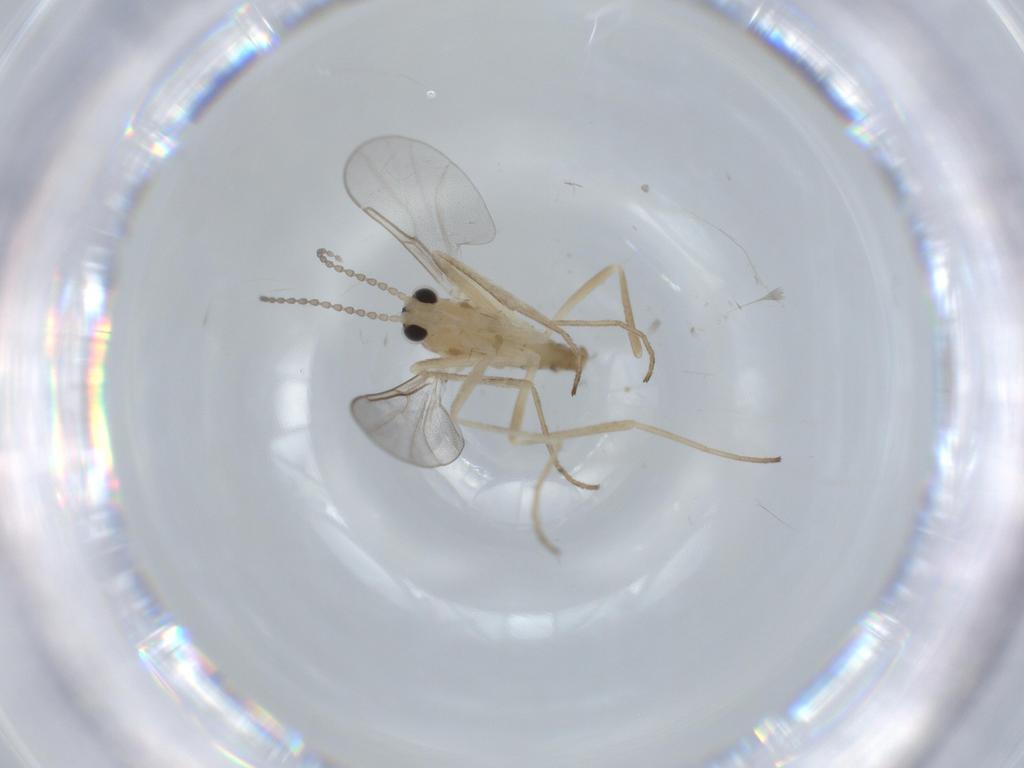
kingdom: Animalia
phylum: Arthropoda
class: Insecta
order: Diptera
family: Cecidomyiidae
